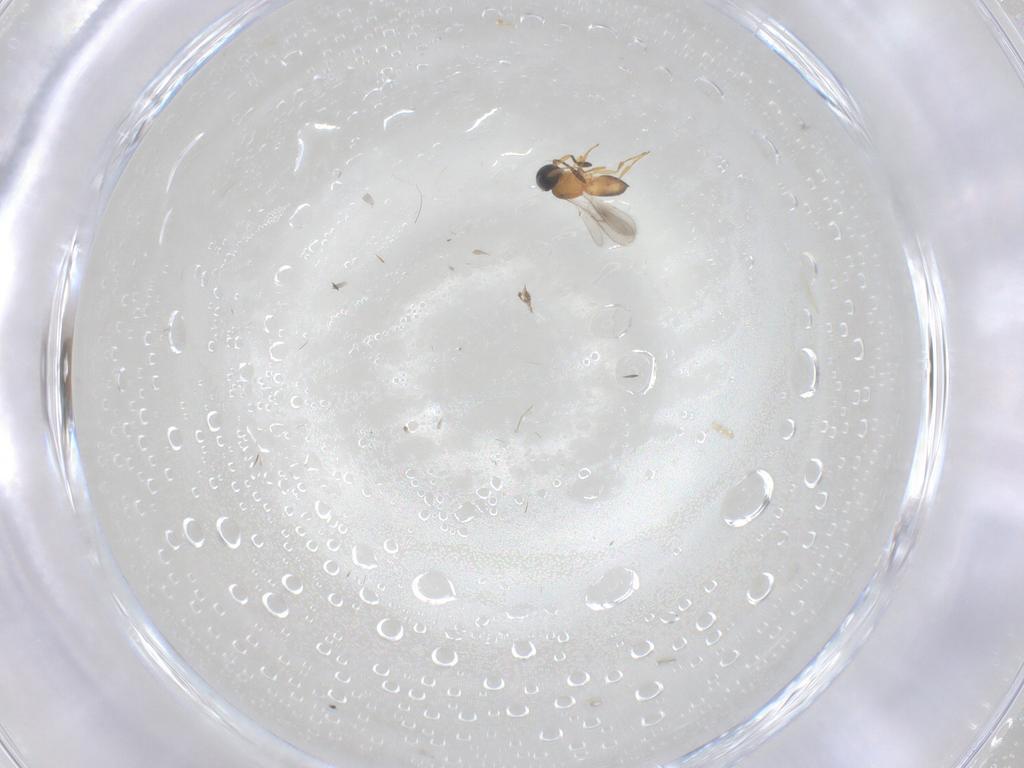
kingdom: Animalia
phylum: Arthropoda
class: Insecta
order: Hymenoptera
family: Scelionidae
